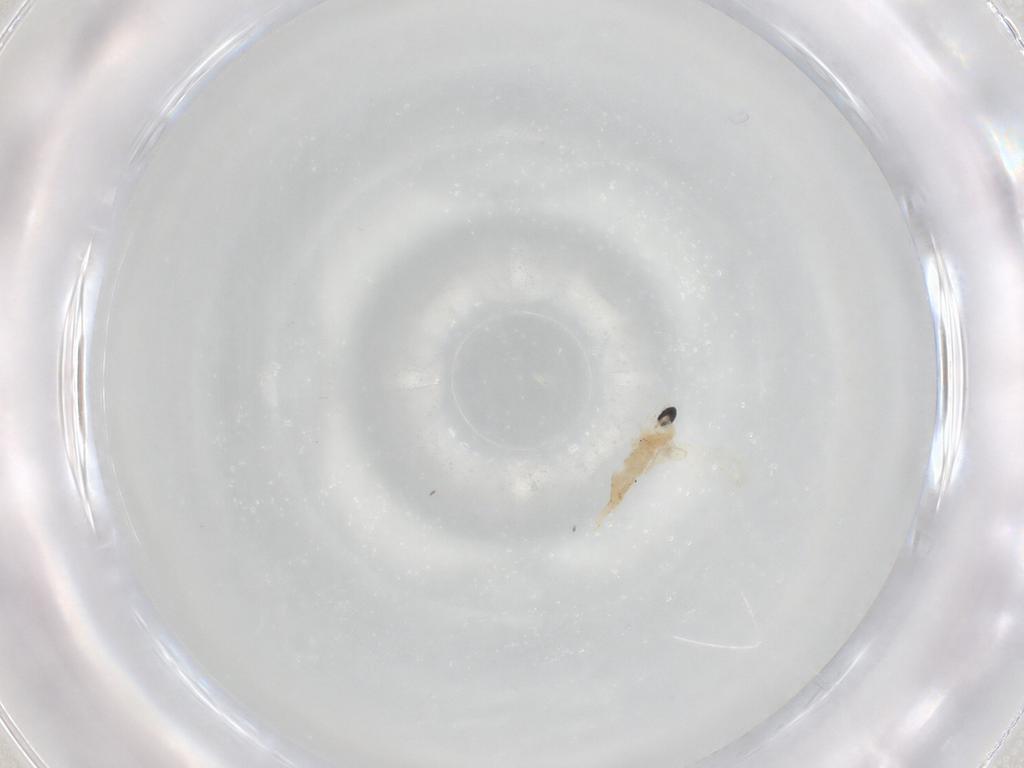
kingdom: Animalia
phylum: Arthropoda
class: Insecta
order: Diptera
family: Cecidomyiidae
